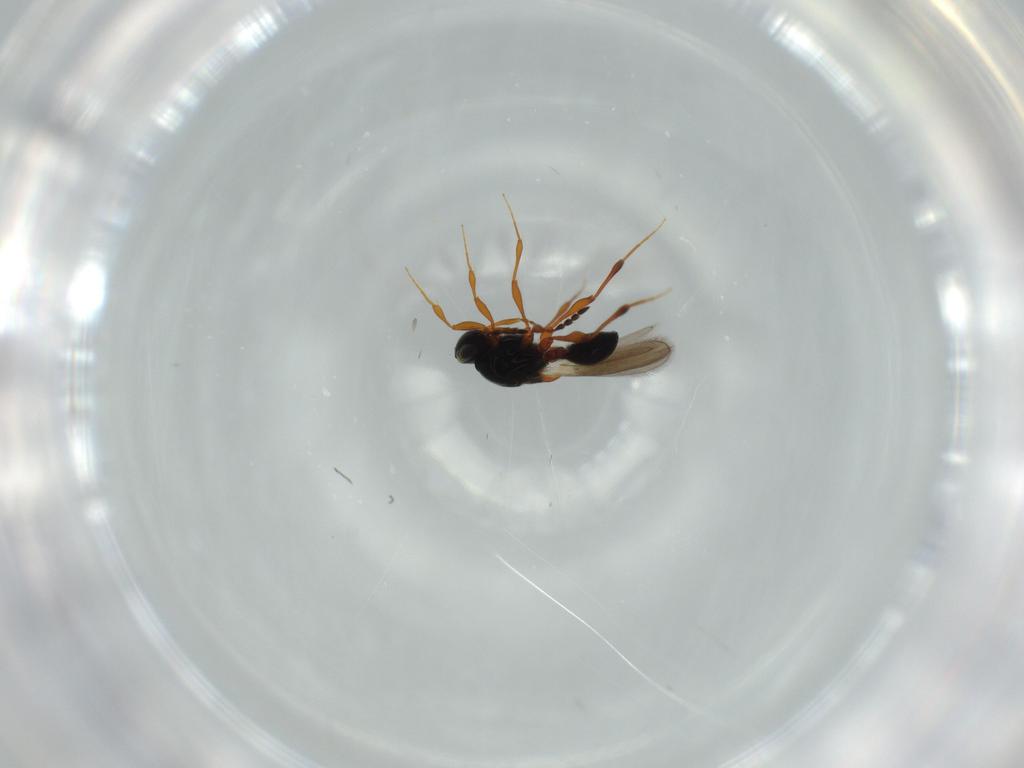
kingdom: Animalia
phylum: Arthropoda
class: Insecta
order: Hymenoptera
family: Platygastridae
